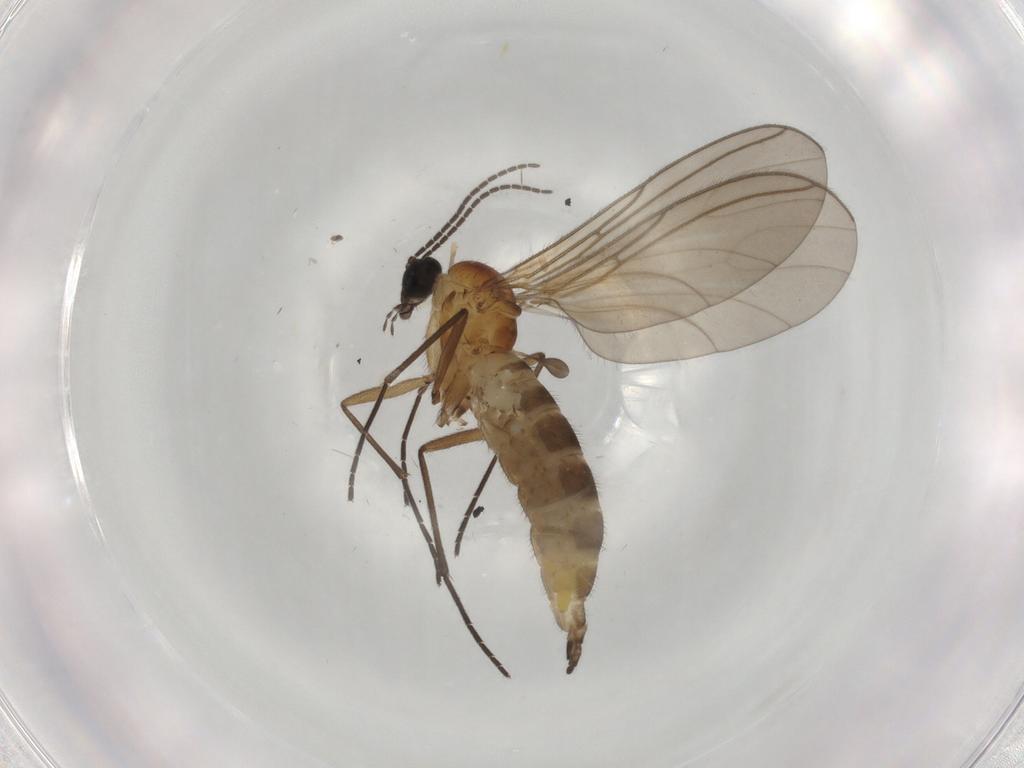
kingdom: Animalia
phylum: Arthropoda
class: Insecta
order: Diptera
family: Sciaridae
